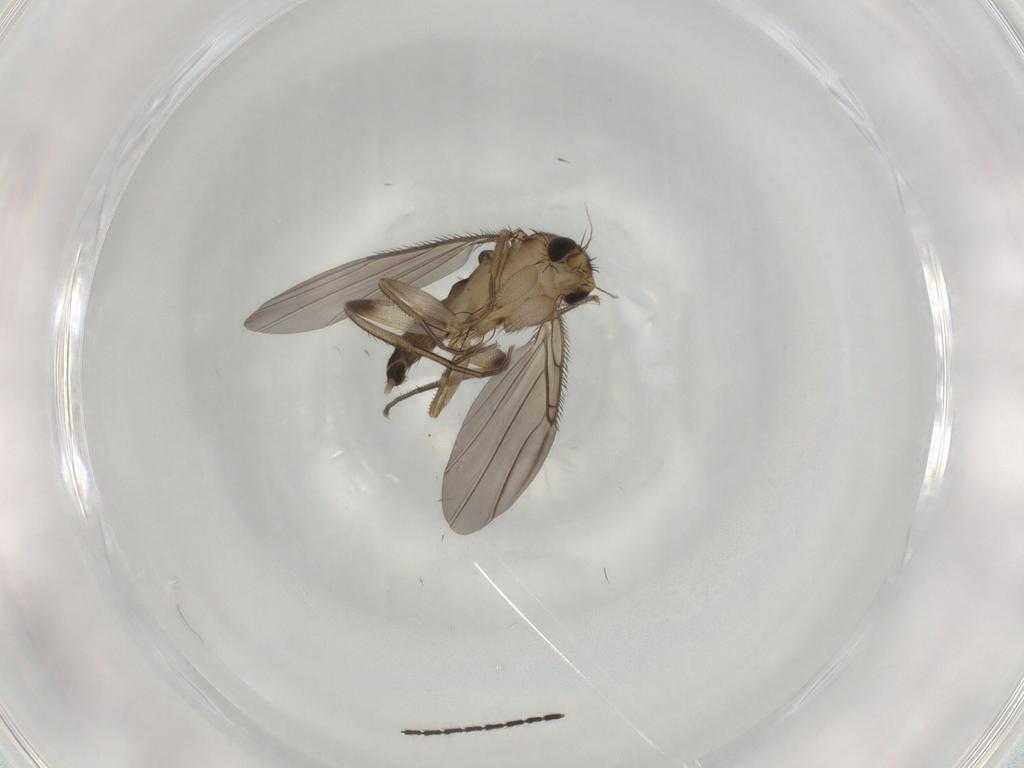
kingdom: Animalia
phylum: Arthropoda
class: Insecta
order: Diptera
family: Phoridae
